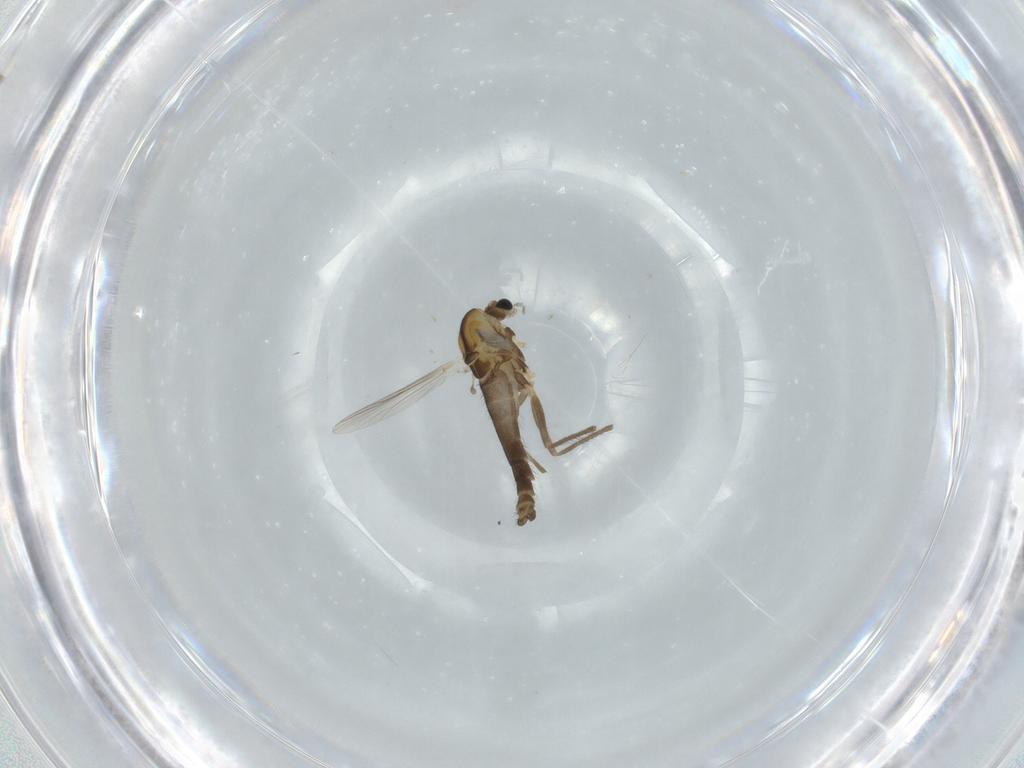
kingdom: Animalia
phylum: Arthropoda
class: Insecta
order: Diptera
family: Chironomidae
